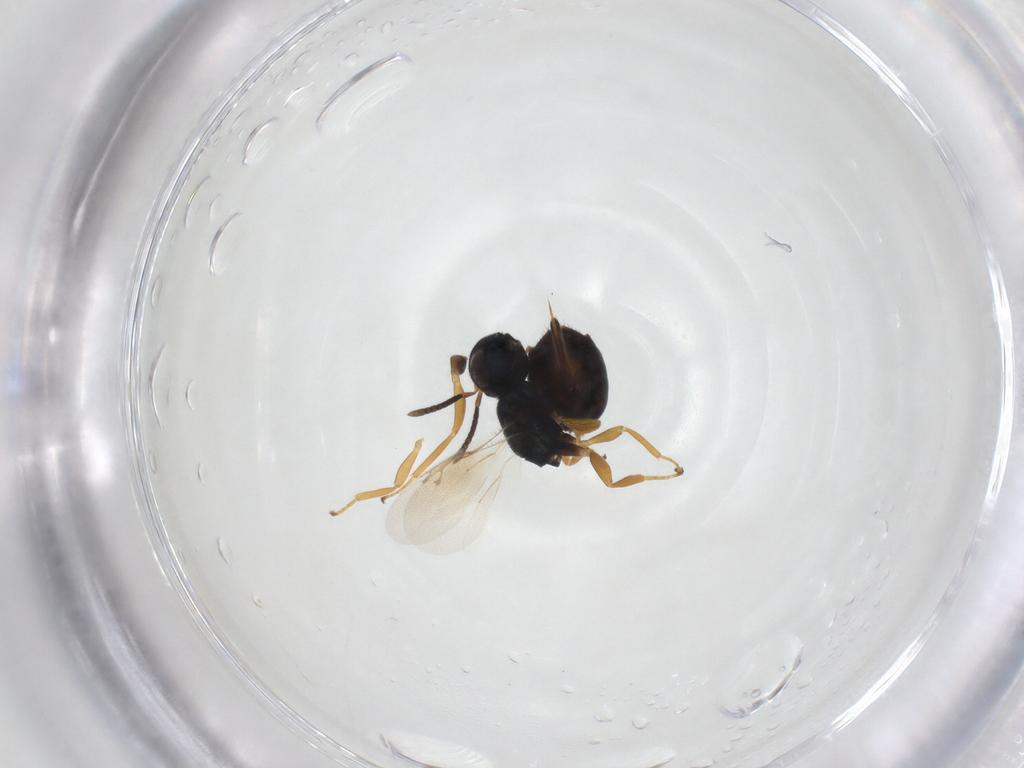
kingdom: Animalia
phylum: Arthropoda
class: Insecta
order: Hymenoptera
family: Pteromalidae
